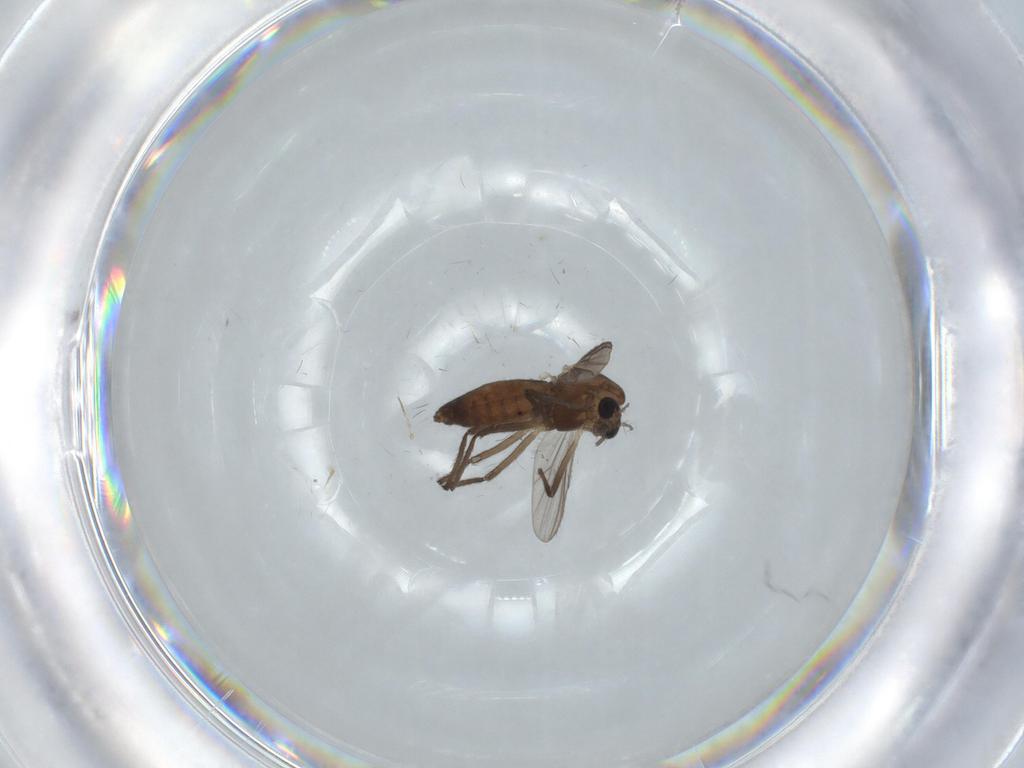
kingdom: Animalia
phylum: Arthropoda
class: Insecta
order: Diptera
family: Chironomidae
